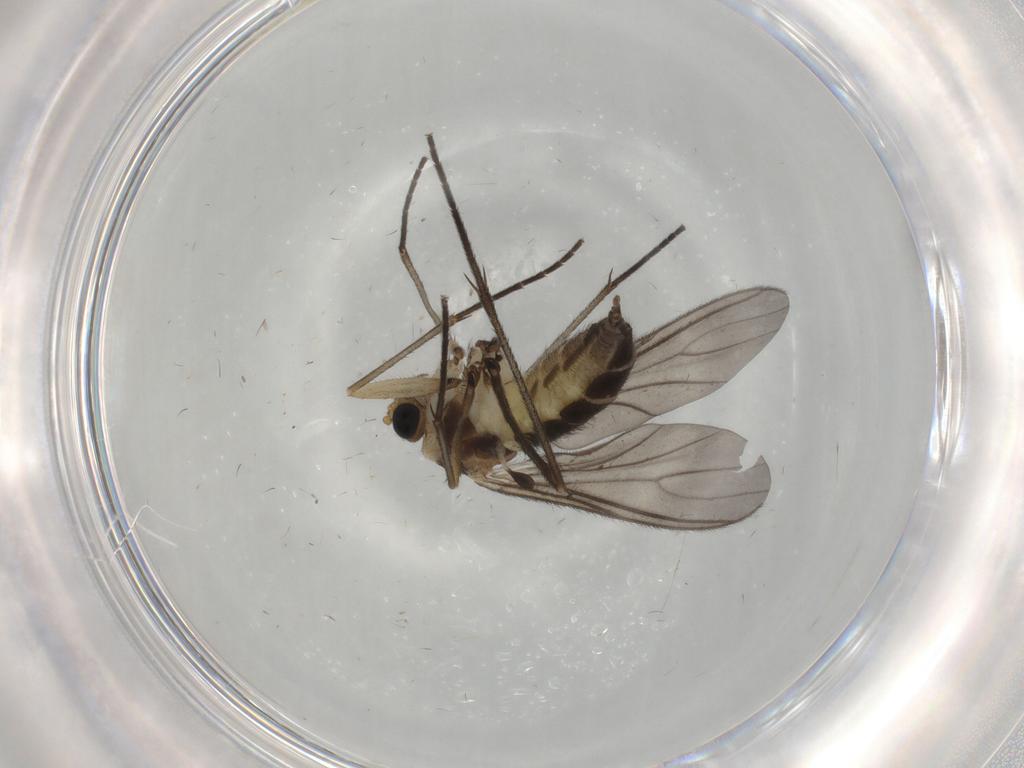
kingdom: Animalia
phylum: Arthropoda
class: Insecta
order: Diptera
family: Sciaridae
